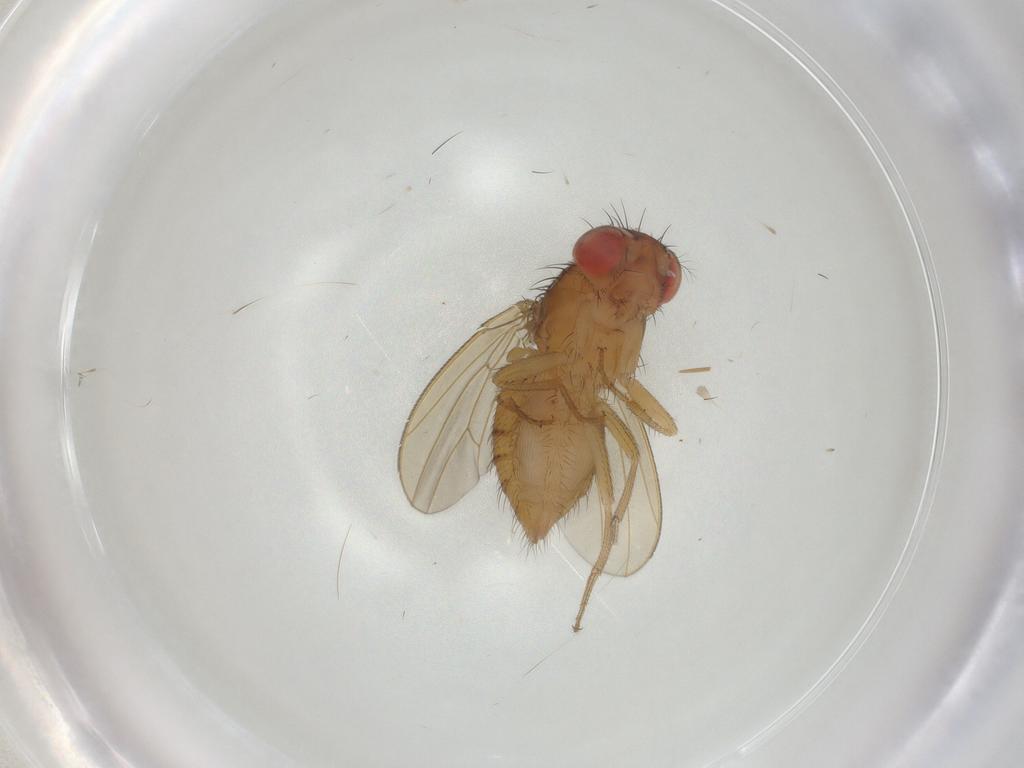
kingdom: Animalia
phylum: Arthropoda
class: Insecta
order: Diptera
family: Drosophilidae
